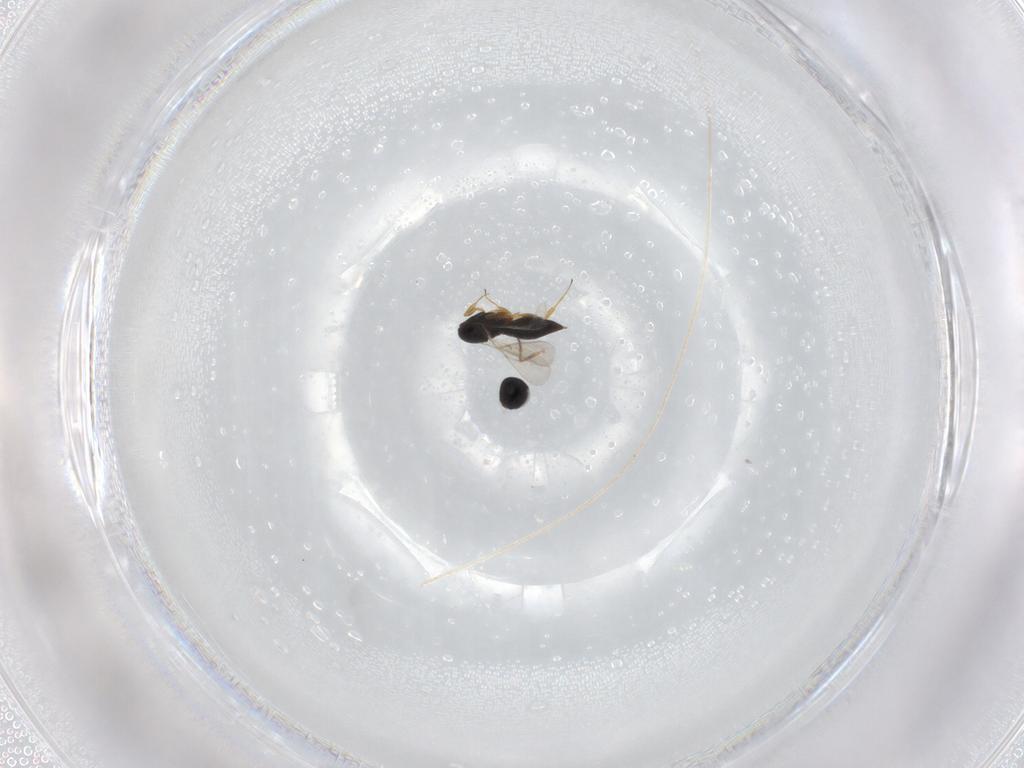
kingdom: Animalia
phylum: Arthropoda
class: Insecta
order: Hymenoptera
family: Scelionidae
